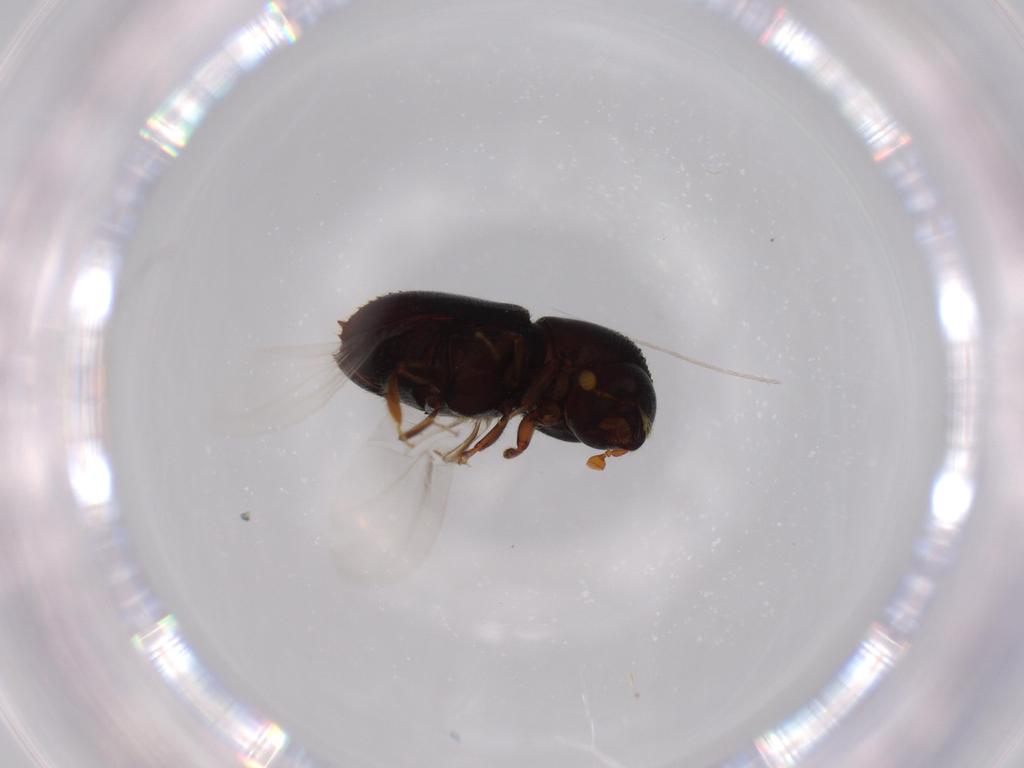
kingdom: Animalia
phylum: Arthropoda
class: Insecta
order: Coleoptera
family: Curculionidae
